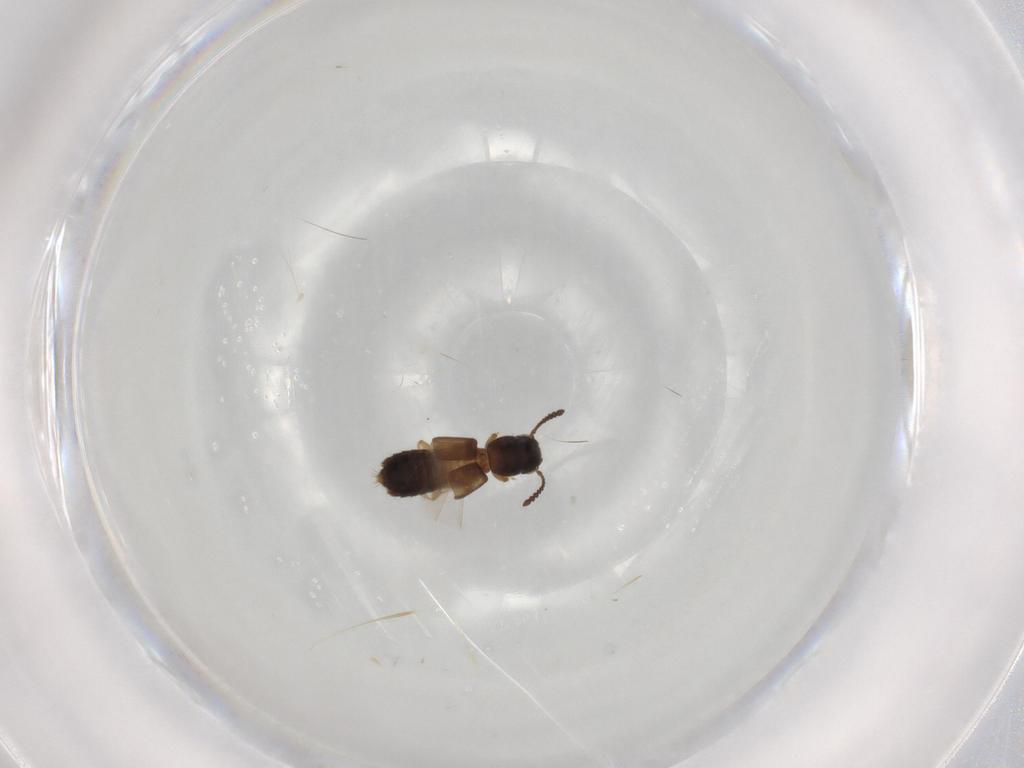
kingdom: Animalia
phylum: Arthropoda
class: Insecta
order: Coleoptera
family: Staphylinidae
